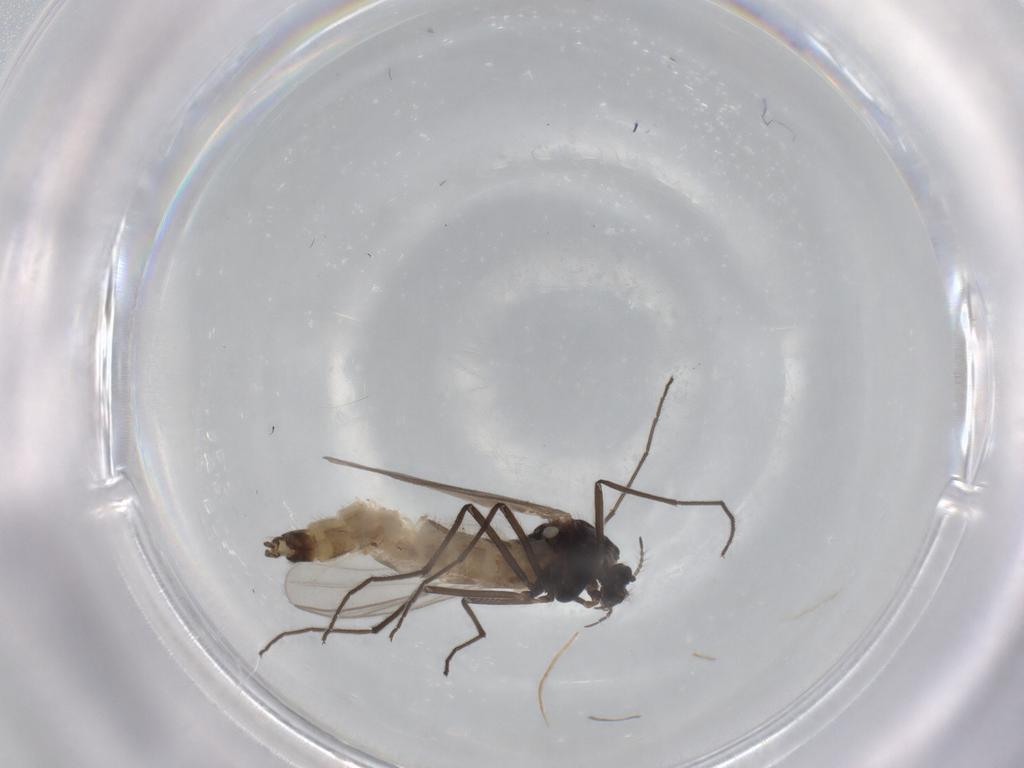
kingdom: Animalia
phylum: Arthropoda
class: Insecta
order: Diptera
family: Chironomidae
